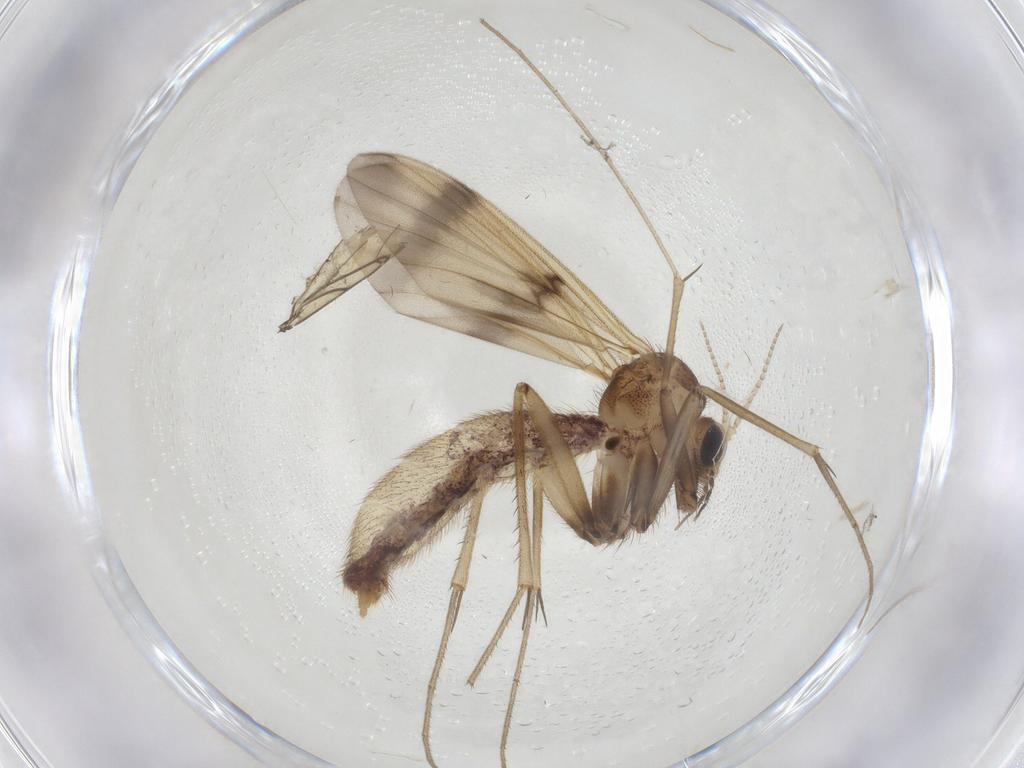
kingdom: Animalia
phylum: Arthropoda
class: Insecta
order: Diptera
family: Mycetophilidae
